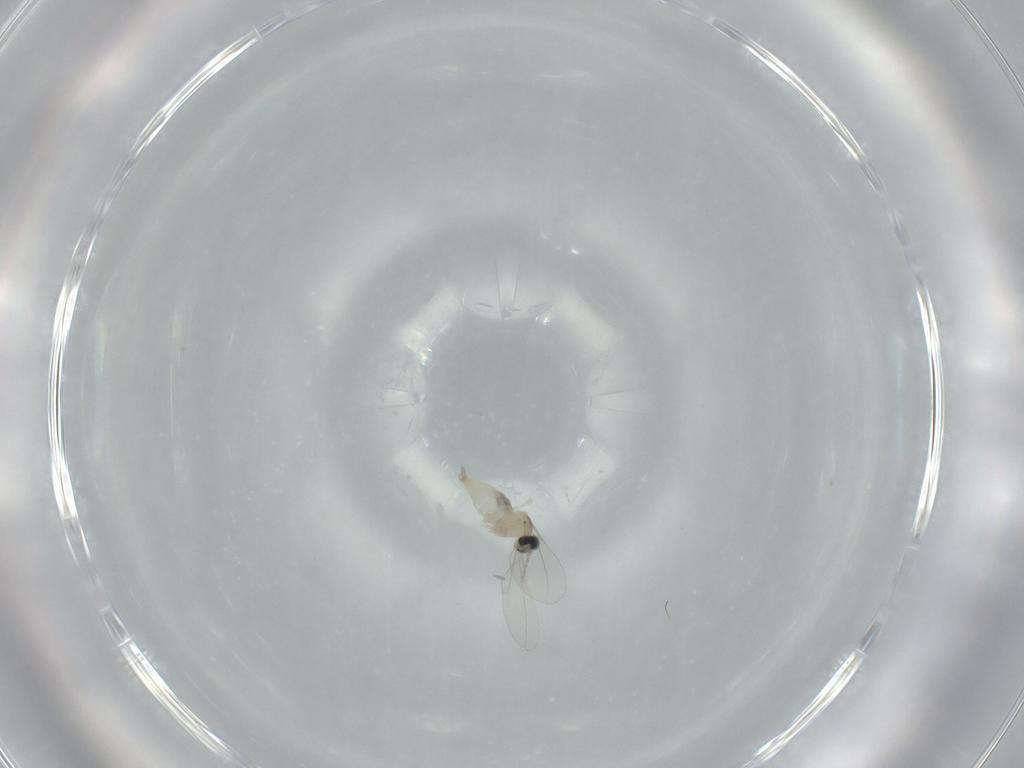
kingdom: Animalia
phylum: Arthropoda
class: Insecta
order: Diptera
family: Cecidomyiidae
